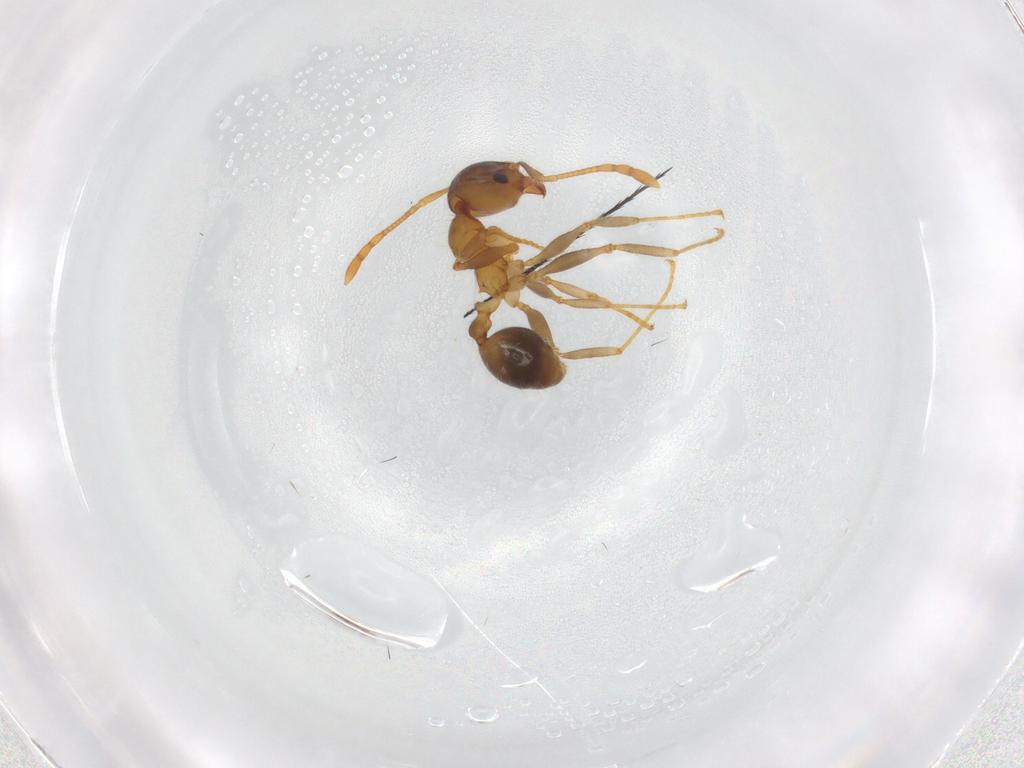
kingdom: Animalia
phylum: Arthropoda
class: Insecta
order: Hymenoptera
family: Formicidae
